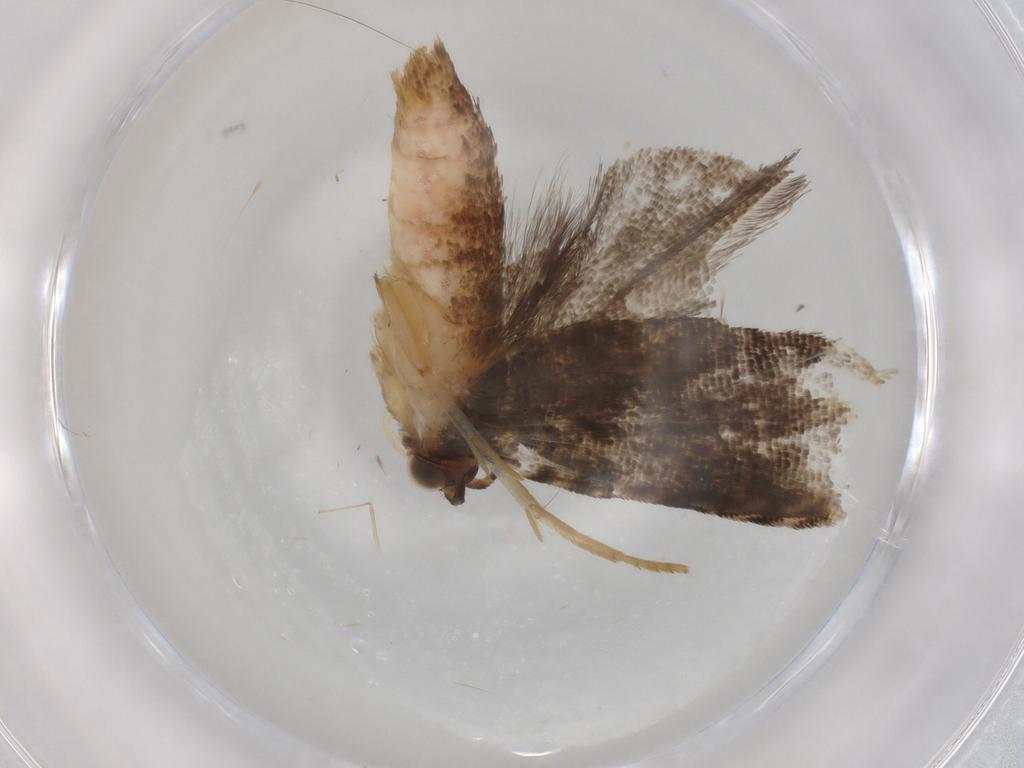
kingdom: Animalia
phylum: Arthropoda
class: Insecta
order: Lepidoptera
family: Tortricidae
